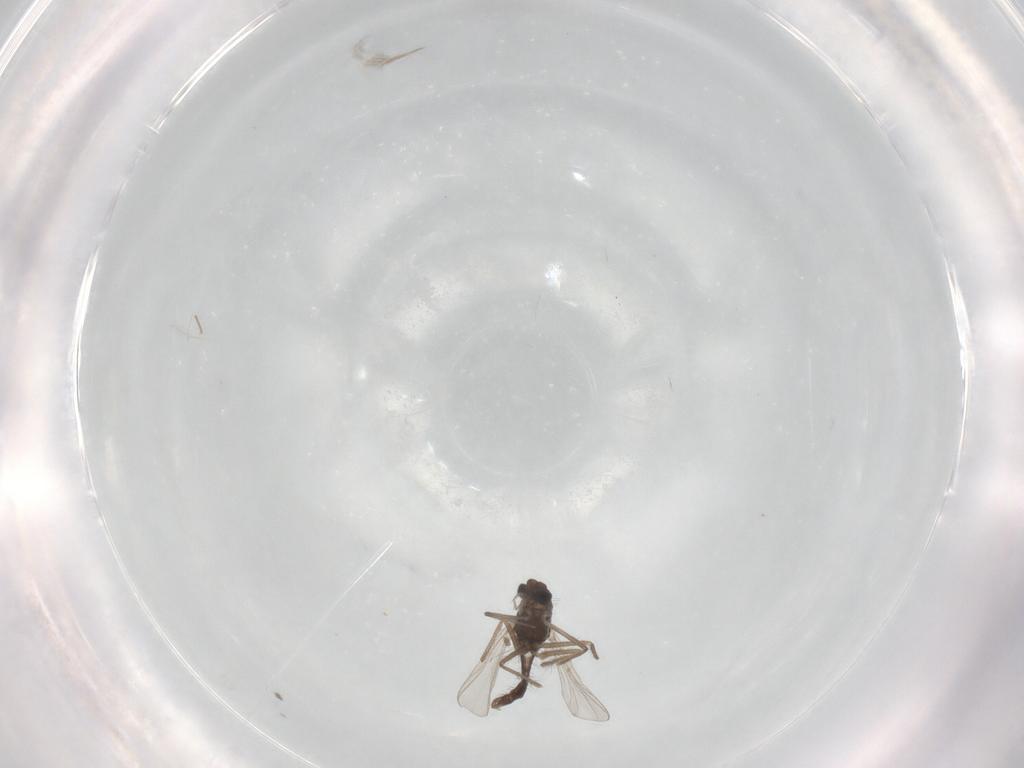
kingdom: Animalia
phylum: Arthropoda
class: Insecta
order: Diptera
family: Chironomidae
